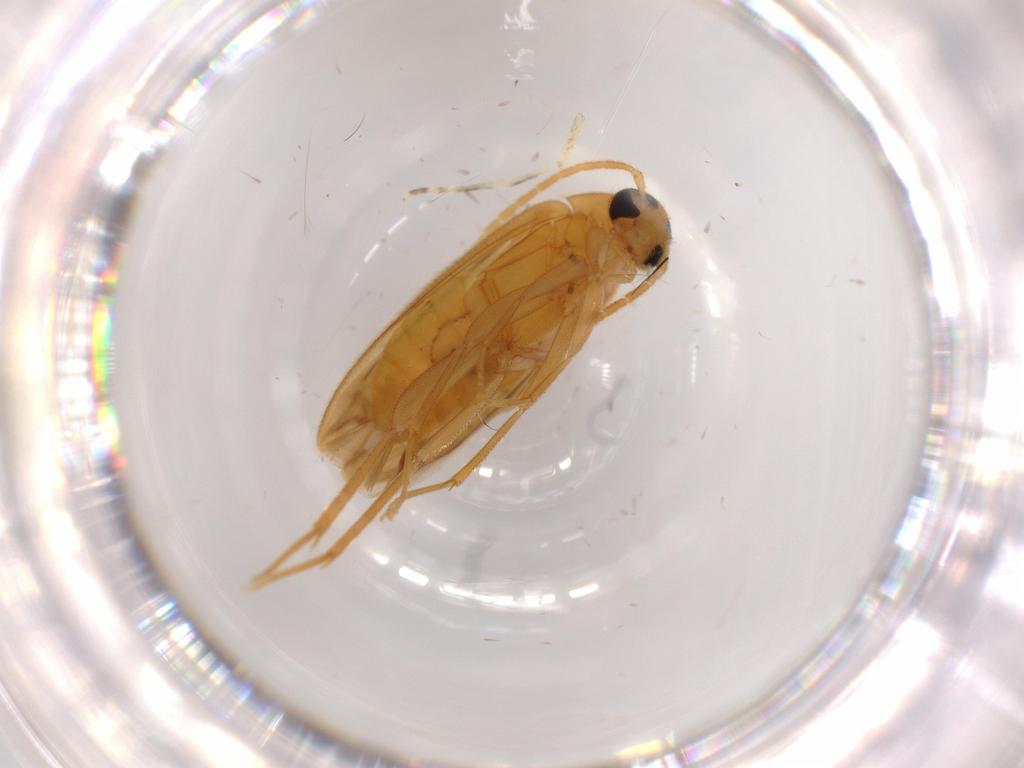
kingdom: Animalia
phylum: Arthropoda
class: Insecta
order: Coleoptera
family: Scraptiidae
